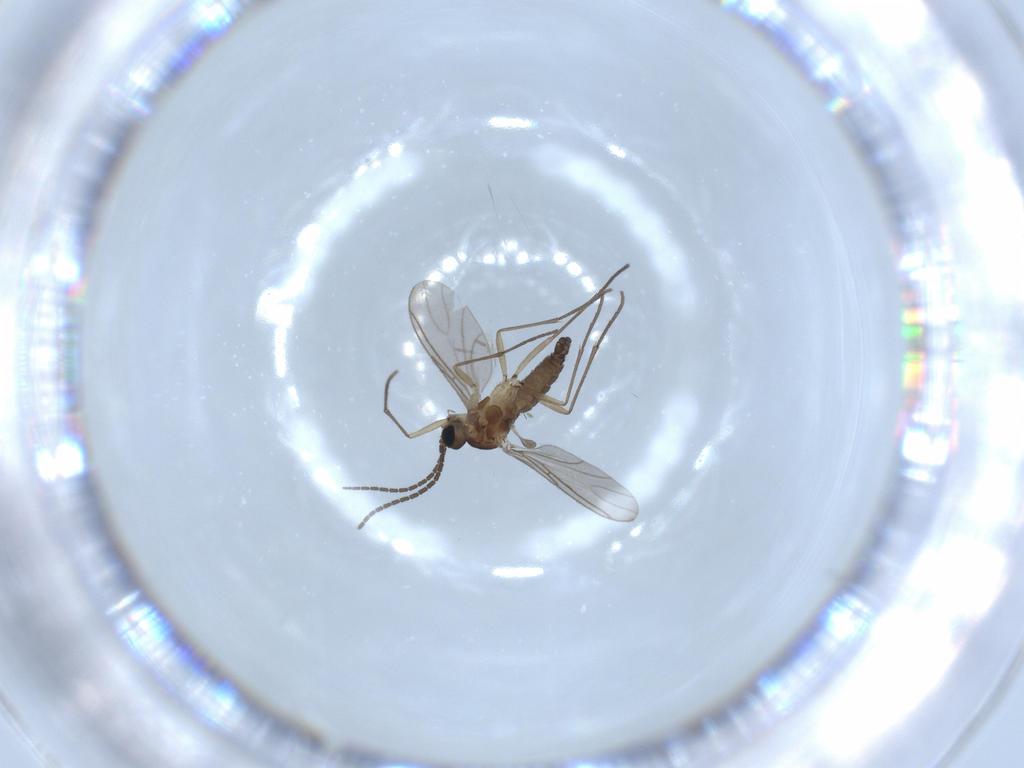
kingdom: Animalia
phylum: Arthropoda
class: Insecta
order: Diptera
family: Sciaridae
